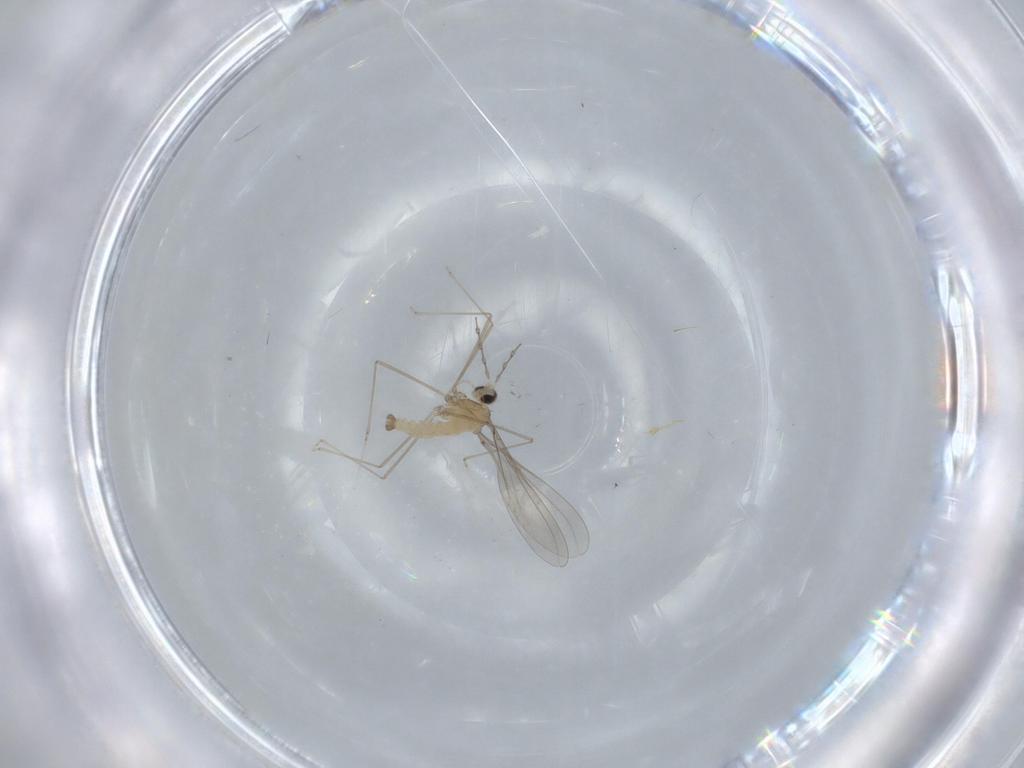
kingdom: Animalia
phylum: Arthropoda
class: Insecta
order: Diptera
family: Cecidomyiidae
